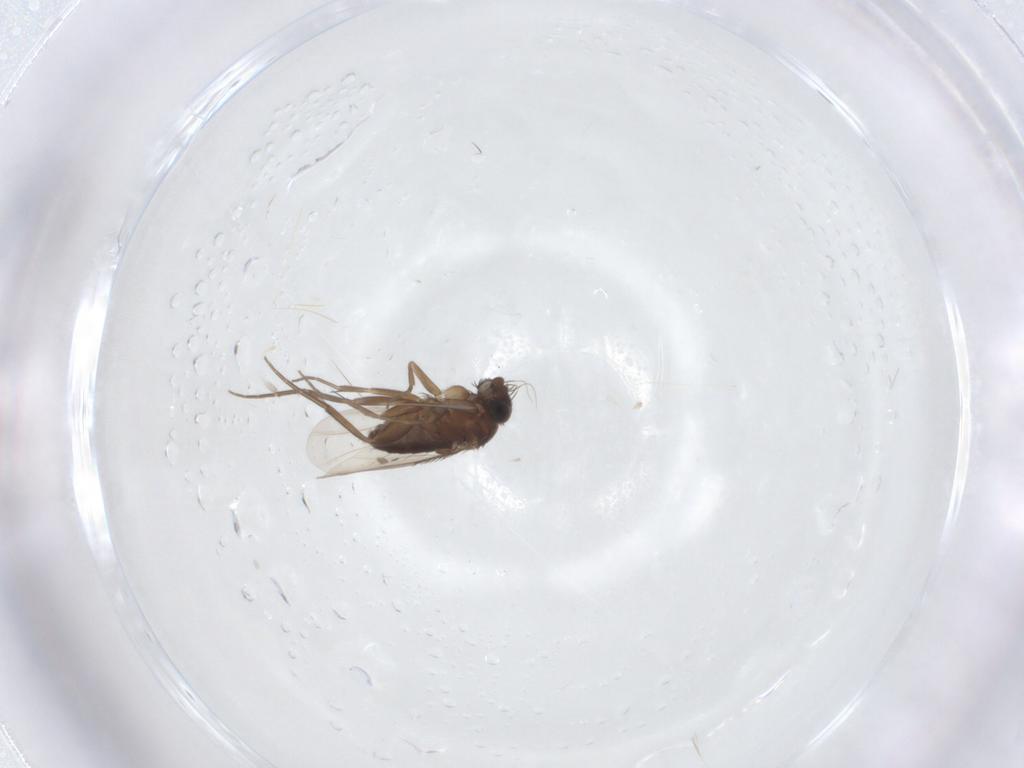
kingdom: Animalia
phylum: Arthropoda
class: Insecta
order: Diptera
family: Phoridae
